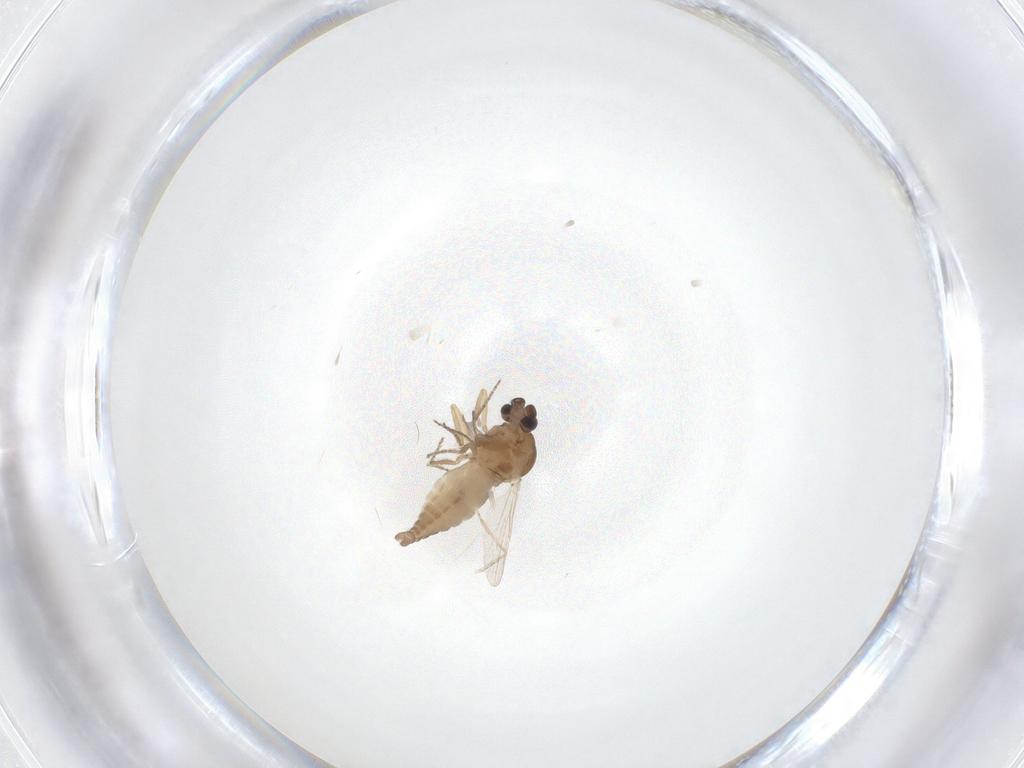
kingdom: Animalia
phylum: Arthropoda
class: Insecta
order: Diptera
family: Ceratopogonidae
